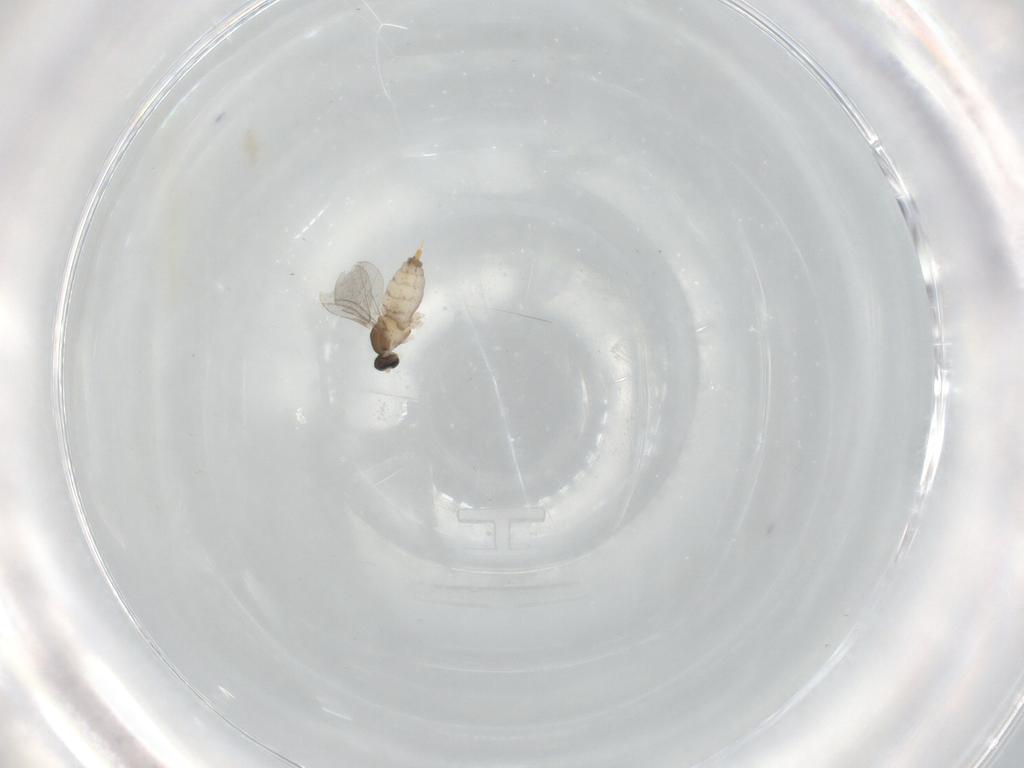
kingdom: Animalia
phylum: Arthropoda
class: Insecta
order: Diptera
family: Cecidomyiidae
